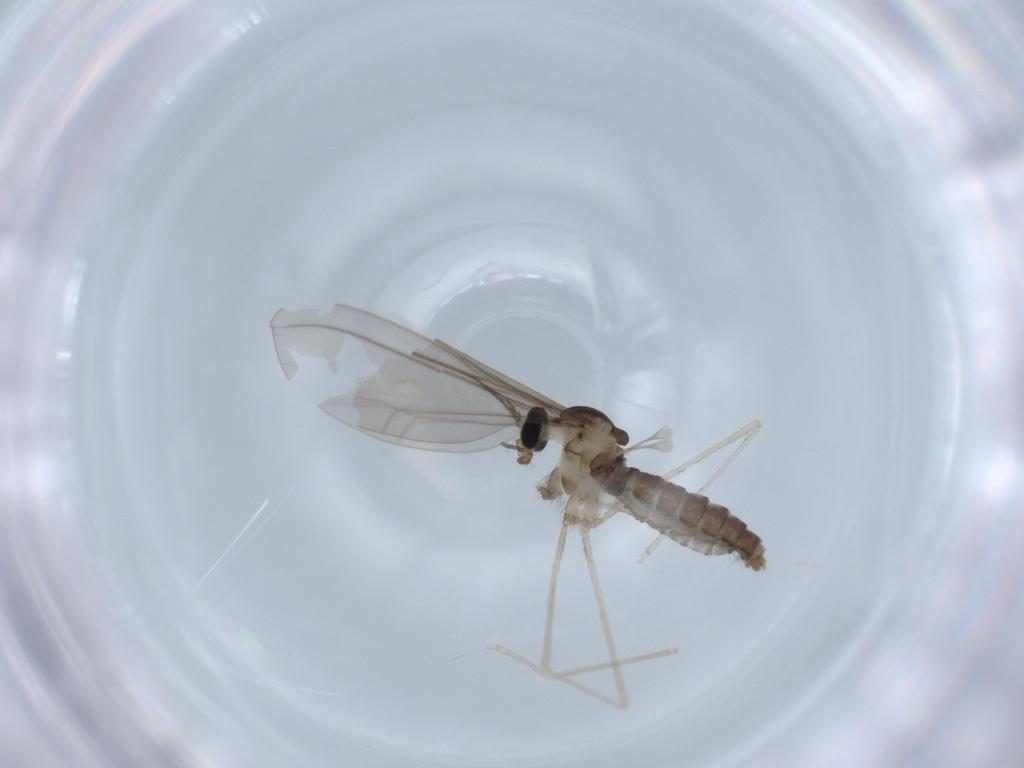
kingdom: Animalia
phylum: Arthropoda
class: Insecta
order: Diptera
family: Cecidomyiidae
